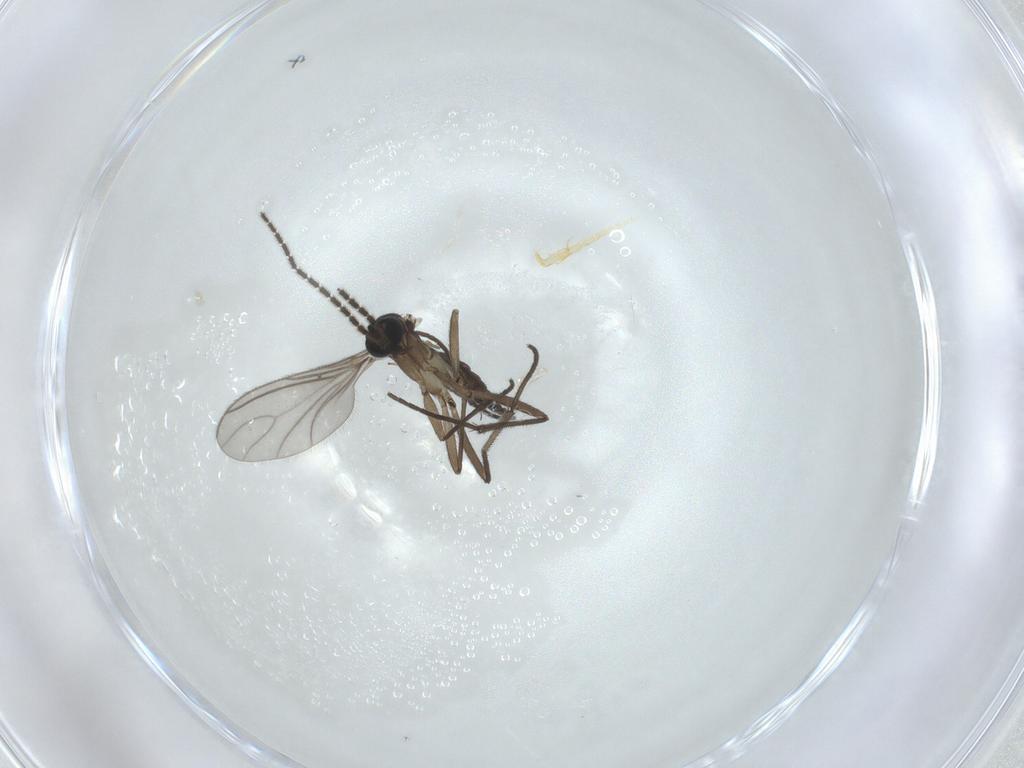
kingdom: Animalia
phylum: Arthropoda
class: Insecta
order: Diptera
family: Sciaridae
